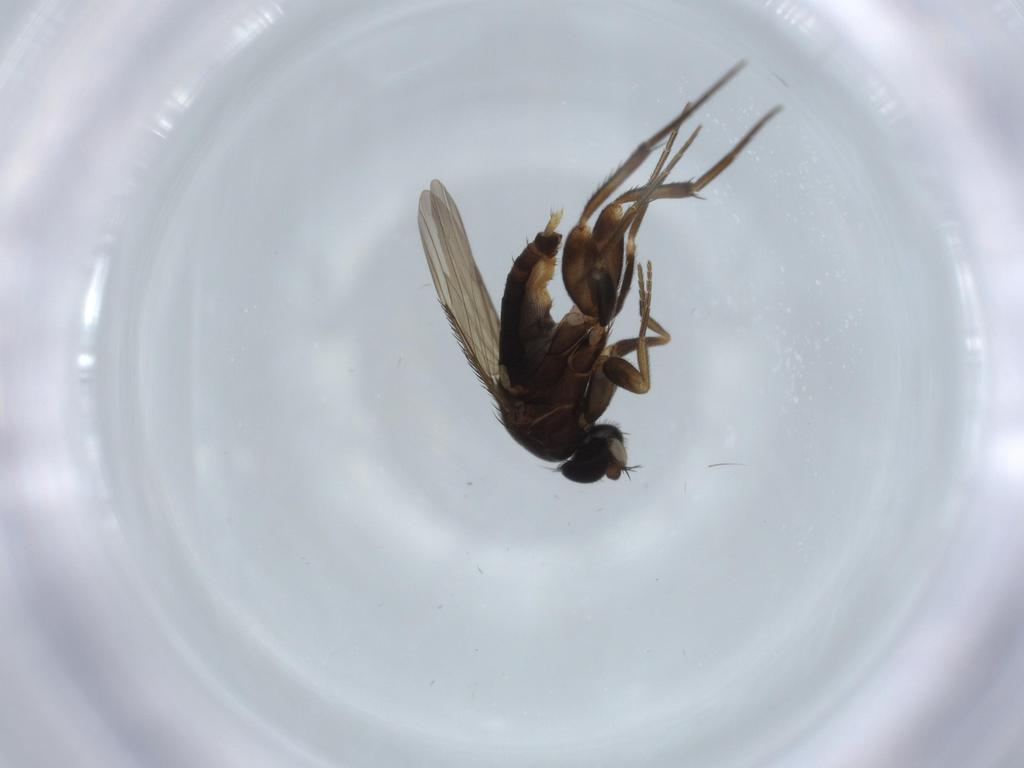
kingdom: Animalia
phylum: Arthropoda
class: Insecta
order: Diptera
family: Phoridae
